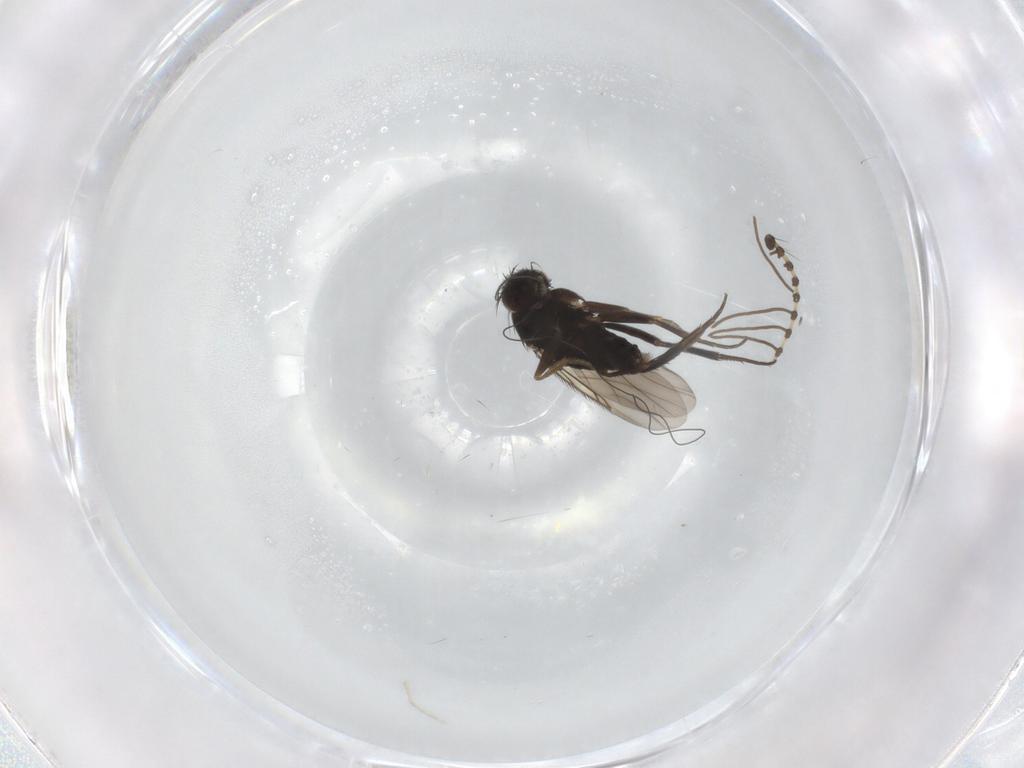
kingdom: Animalia
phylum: Arthropoda
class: Insecta
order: Diptera
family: Phoridae
